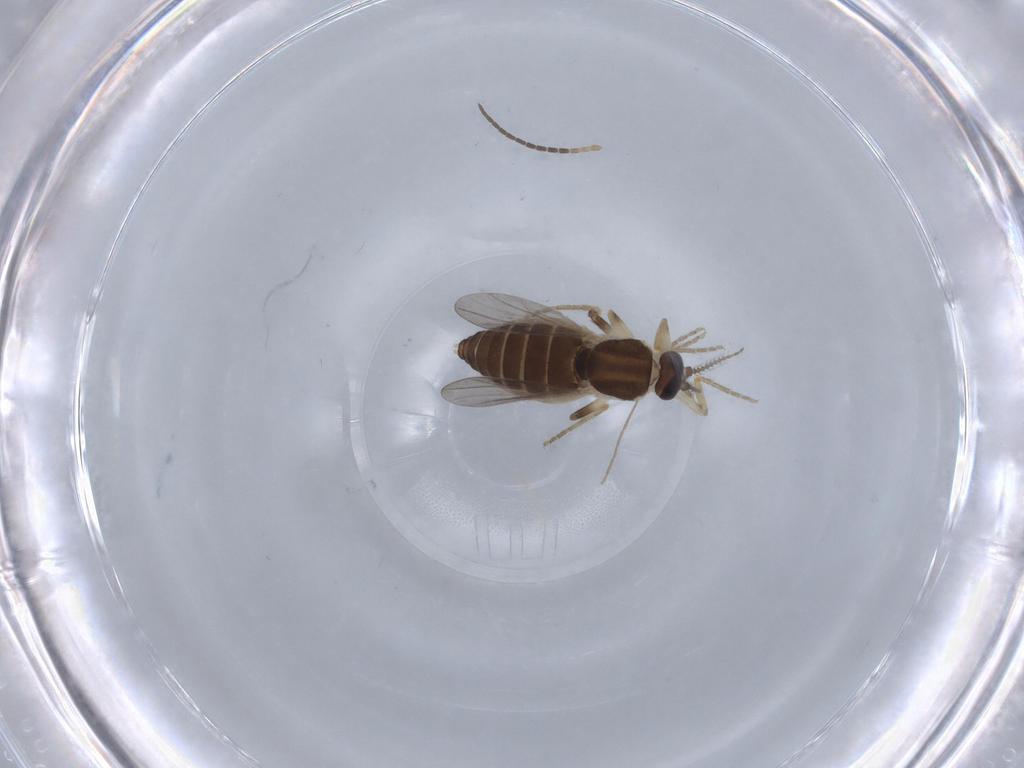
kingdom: Animalia
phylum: Arthropoda
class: Insecta
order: Diptera
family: Ceratopogonidae
